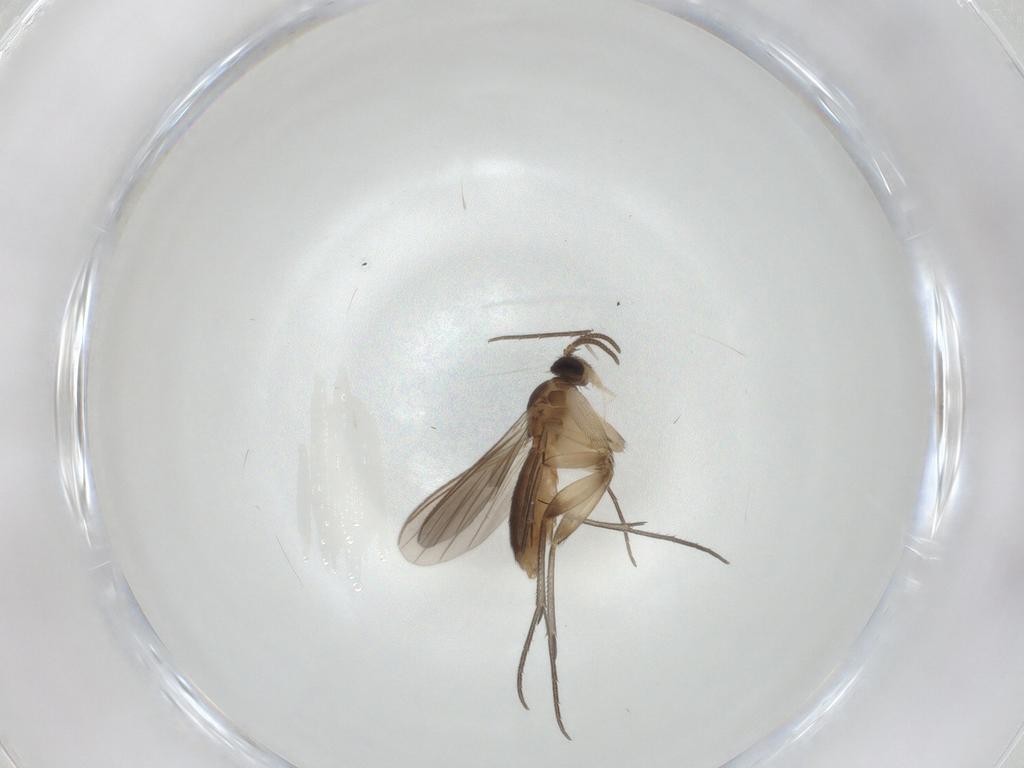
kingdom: Animalia
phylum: Arthropoda
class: Insecta
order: Diptera
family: Mycetophilidae
